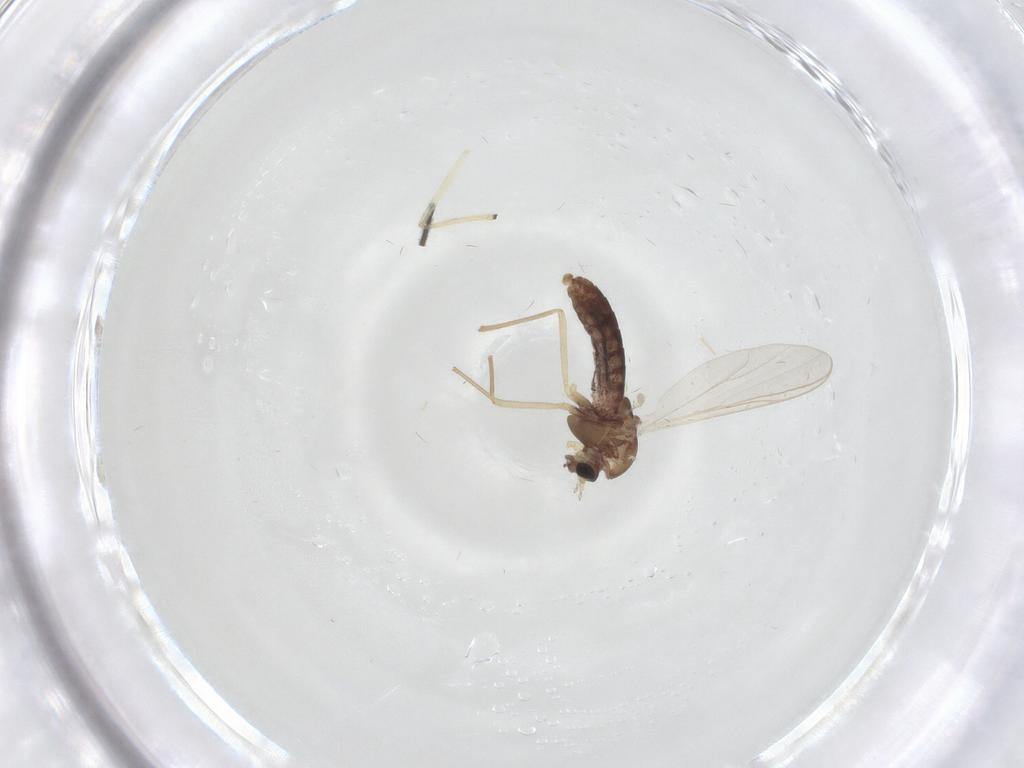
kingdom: Animalia
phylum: Arthropoda
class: Insecta
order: Diptera
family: Chironomidae
